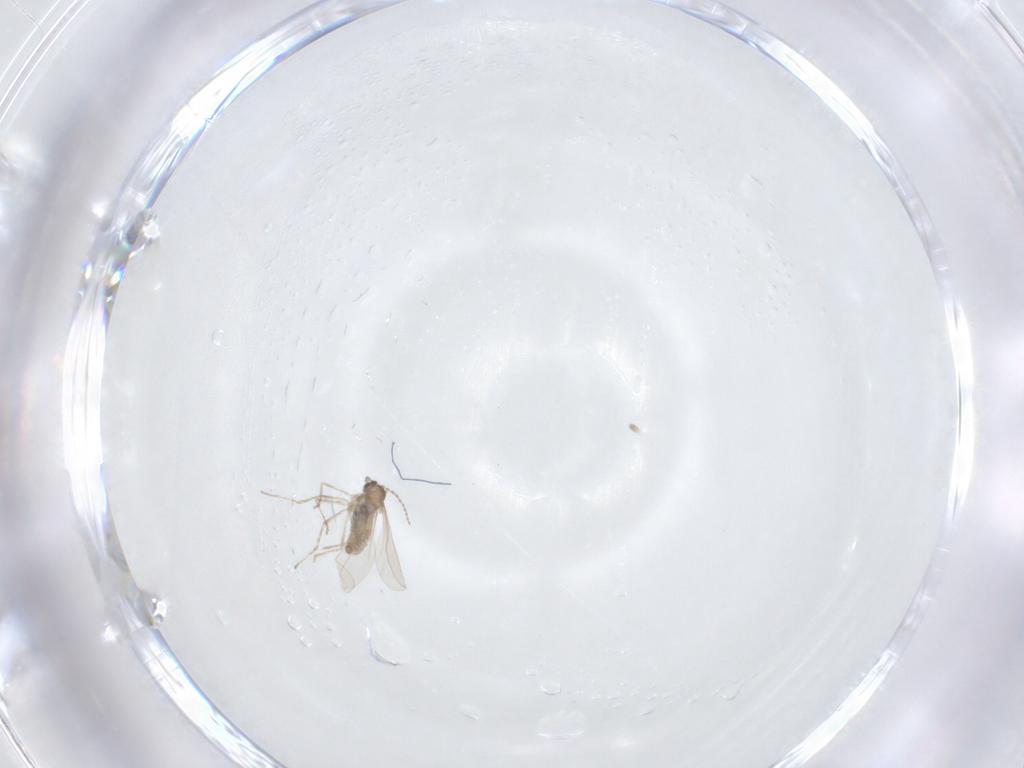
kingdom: Animalia
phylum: Arthropoda
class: Insecta
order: Diptera
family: Cecidomyiidae
